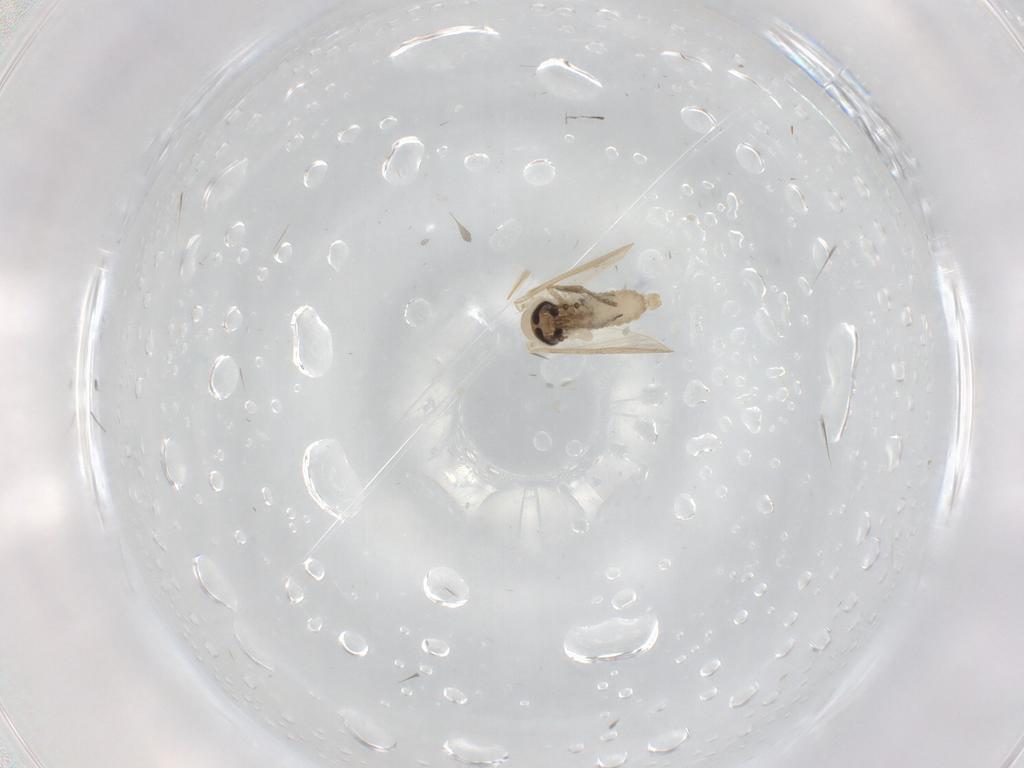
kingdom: Animalia
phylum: Arthropoda
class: Insecta
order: Diptera
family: Psychodidae
